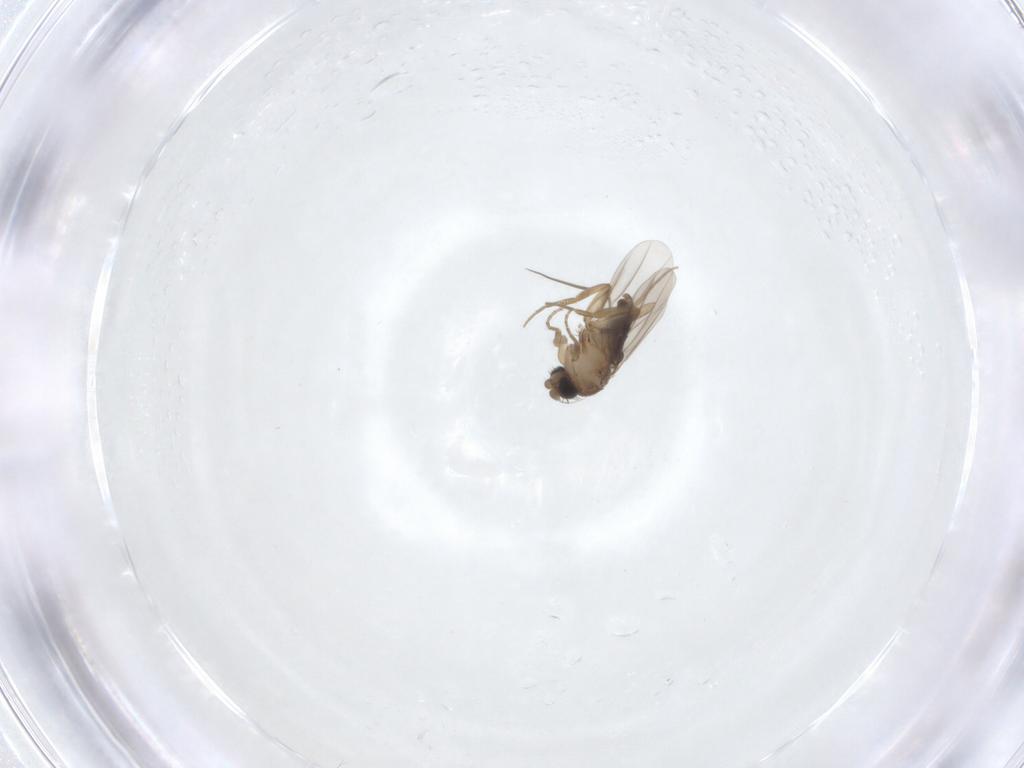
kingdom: Animalia
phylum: Arthropoda
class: Insecta
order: Diptera
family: Phoridae
